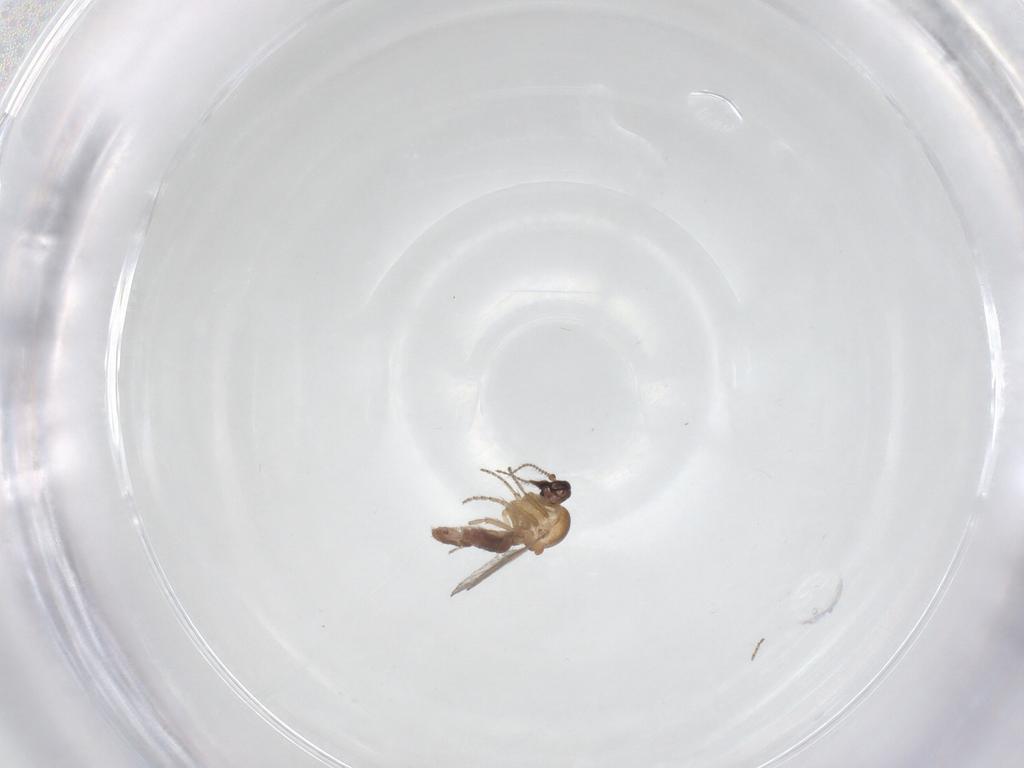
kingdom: Animalia
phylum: Arthropoda
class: Insecta
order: Diptera
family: Ceratopogonidae
